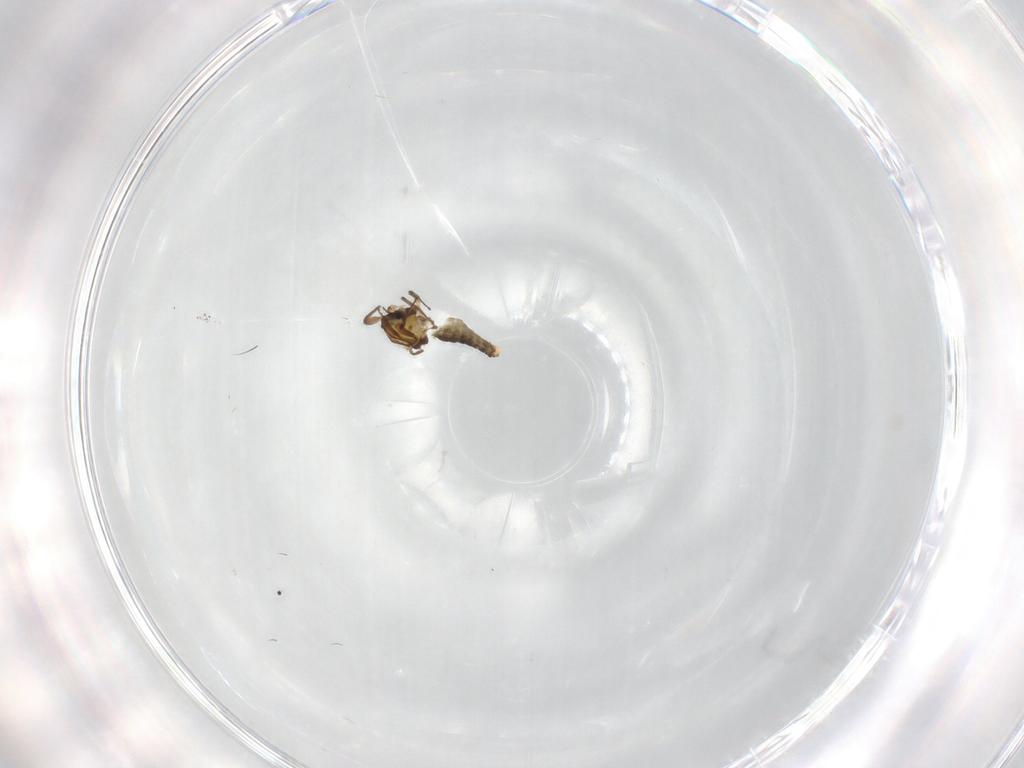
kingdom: Animalia
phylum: Arthropoda
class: Insecta
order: Diptera
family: Chironomidae
